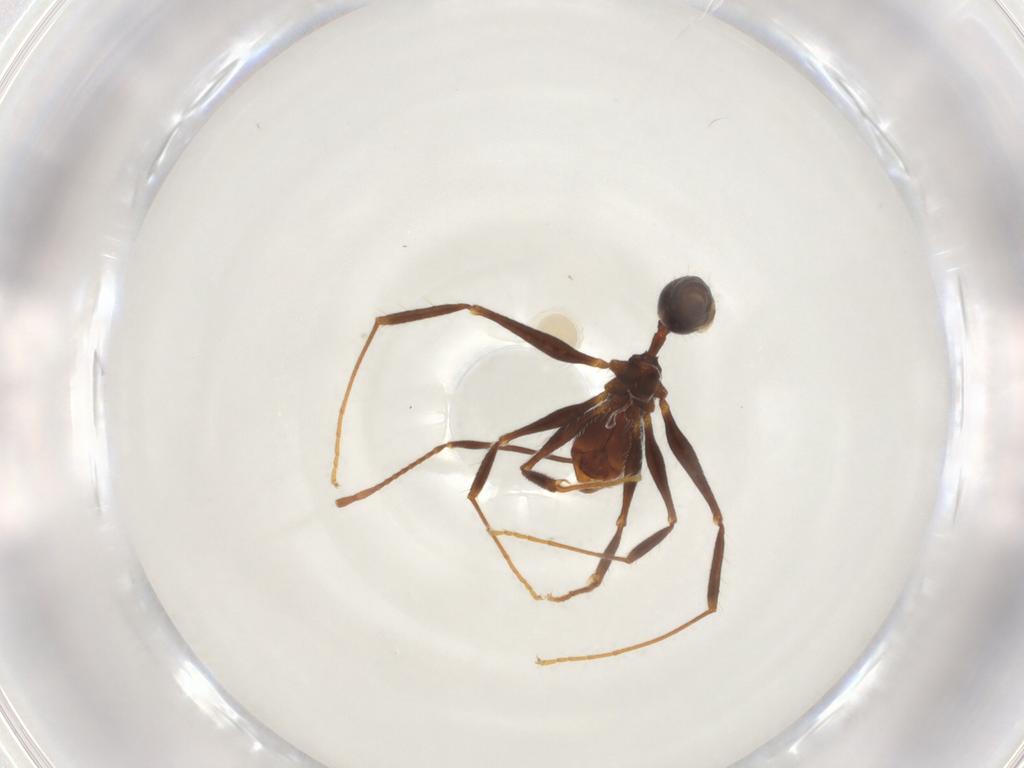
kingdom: Animalia
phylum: Arthropoda
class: Insecta
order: Hymenoptera
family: Formicidae
